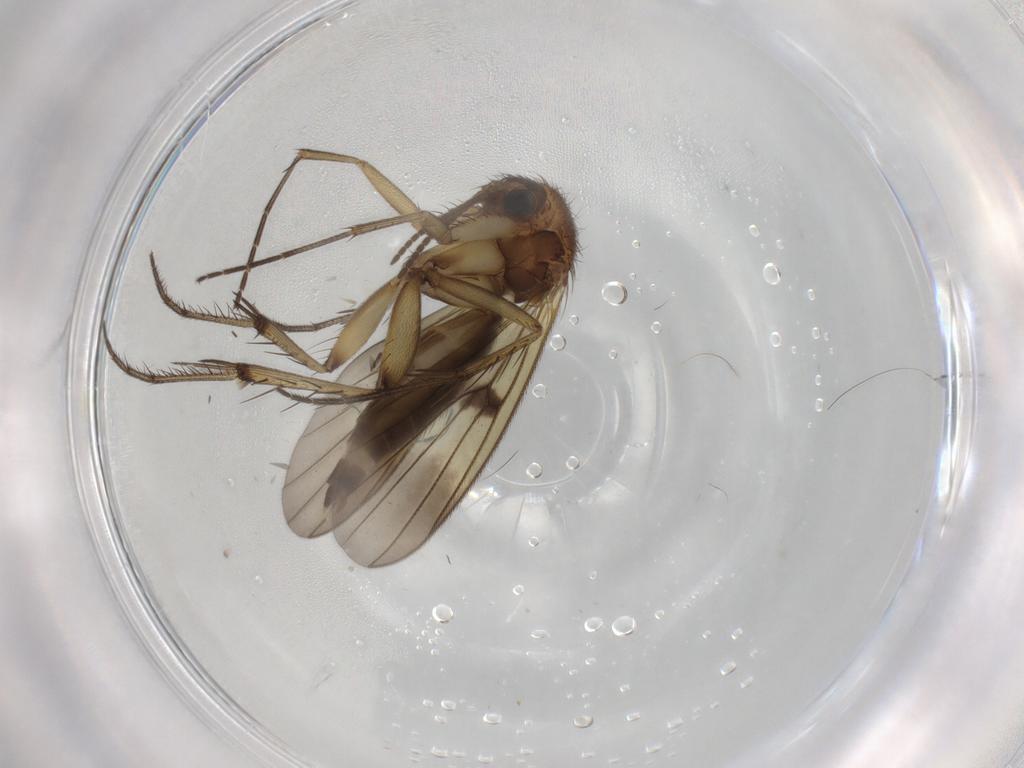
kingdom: Animalia
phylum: Arthropoda
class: Insecta
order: Diptera
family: Mycetophilidae
